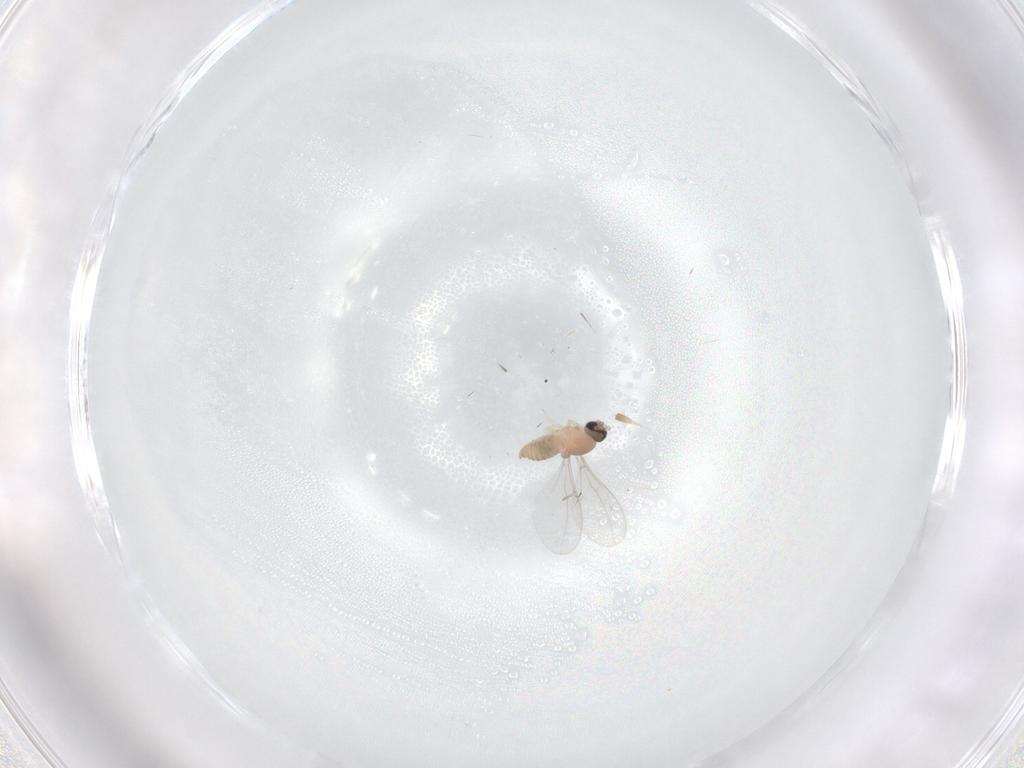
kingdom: Animalia
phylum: Arthropoda
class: Insecta
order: Diptera
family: Cecidomyiidae
